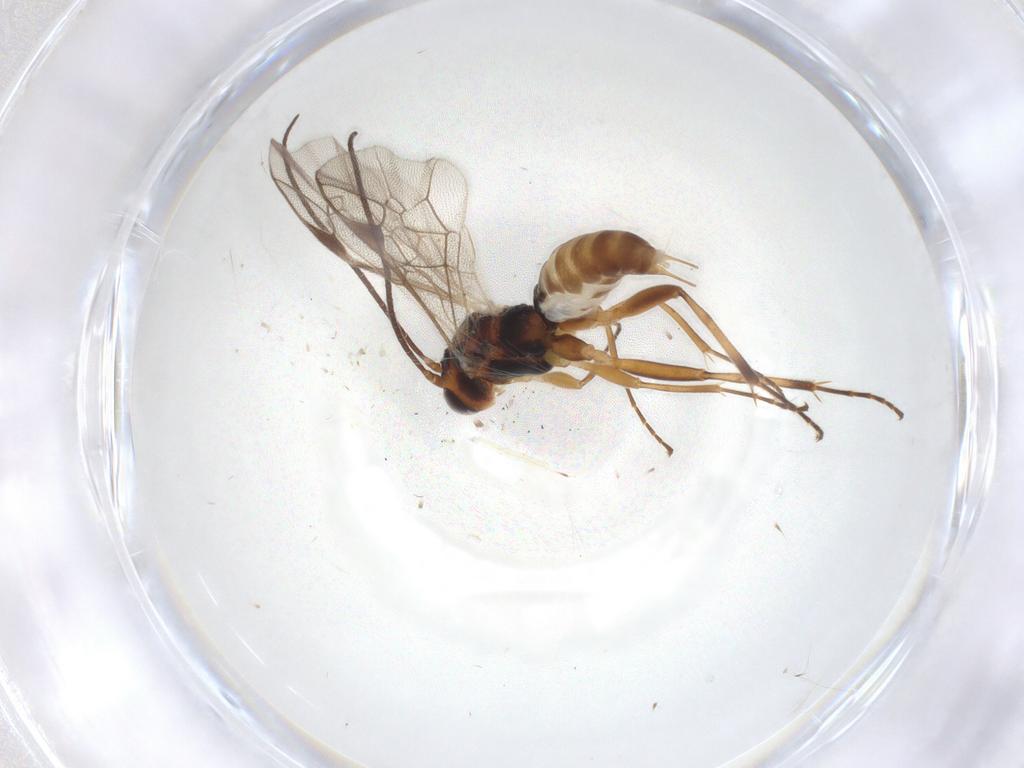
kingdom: Animalia
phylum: Arthropoda
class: Insecta
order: Hymenoptera
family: Ichneumonidae
